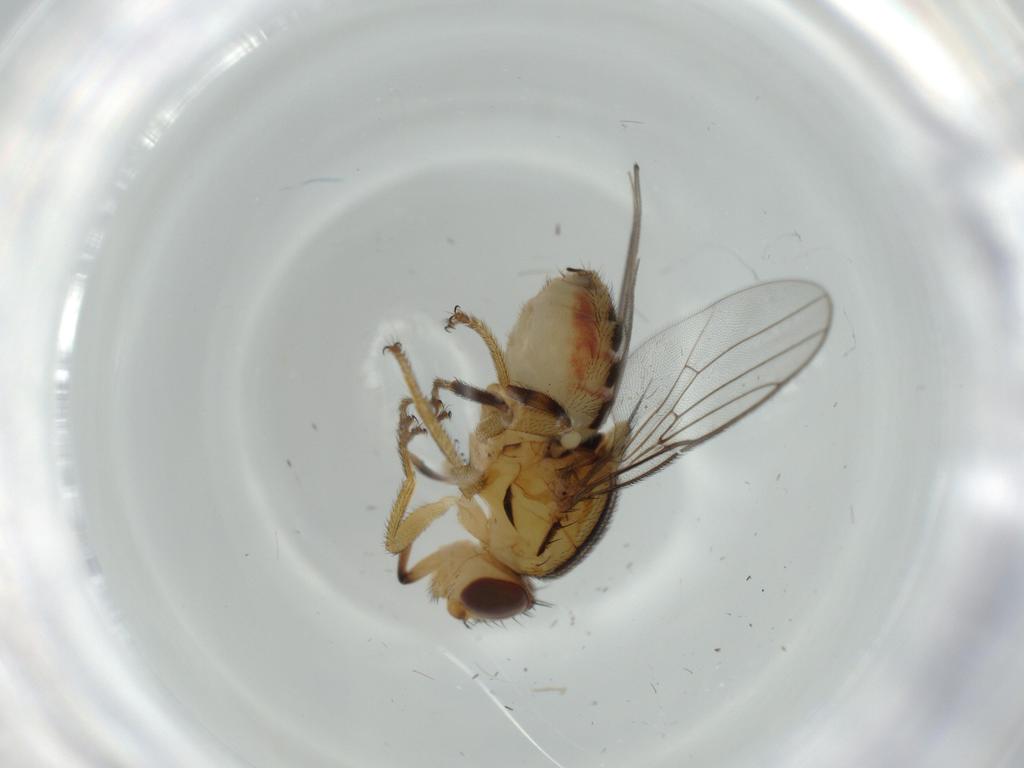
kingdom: Animalia
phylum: Arthropoda
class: Insecta
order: Diptera
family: Chloropidae
